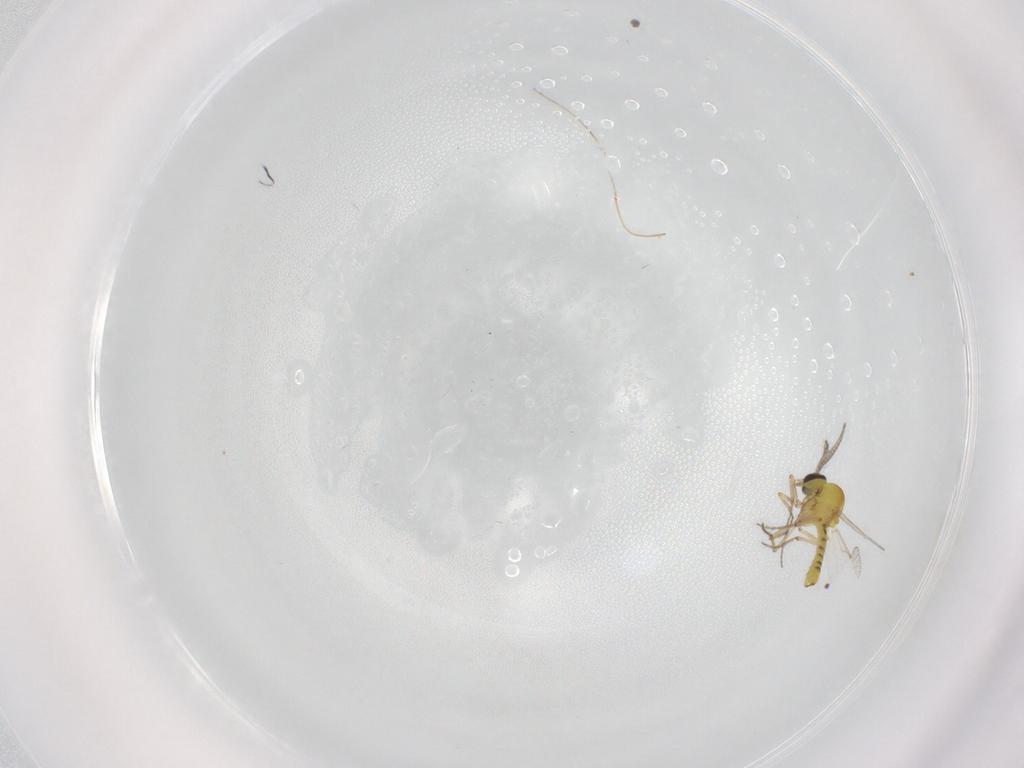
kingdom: Animalia
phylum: Arthropoda
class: Insecta
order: Diptera
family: Ceratopogonidae
